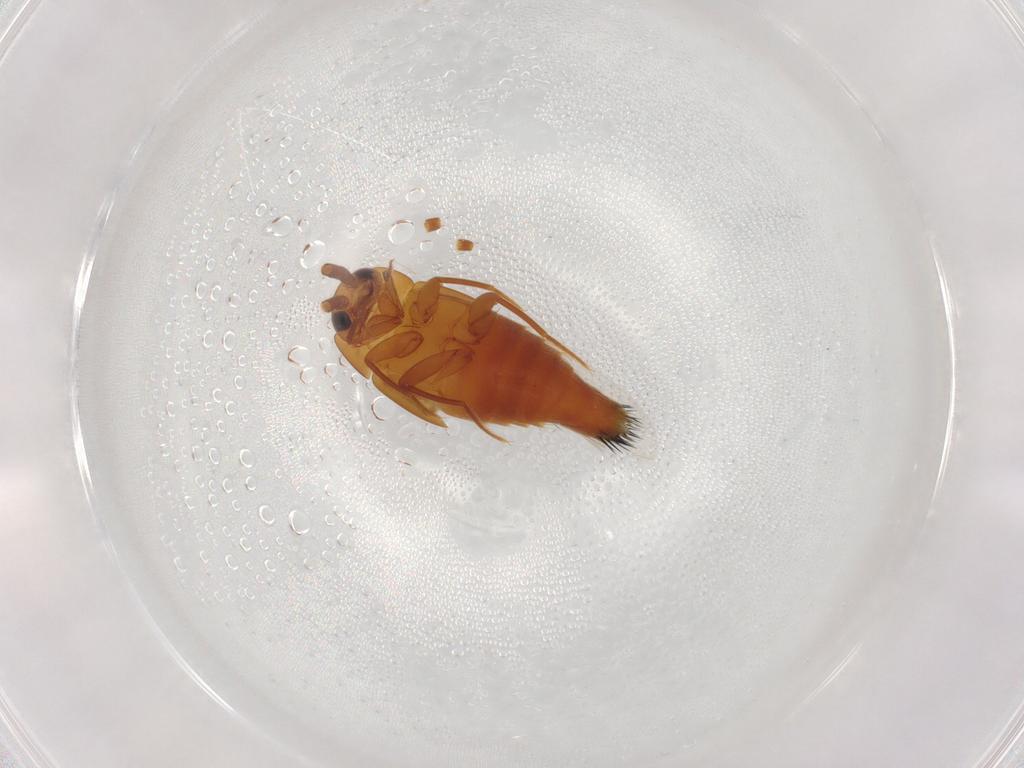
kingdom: Animalia
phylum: Arthropoda
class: Insecta
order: Coleoptera
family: Staphylinidae
